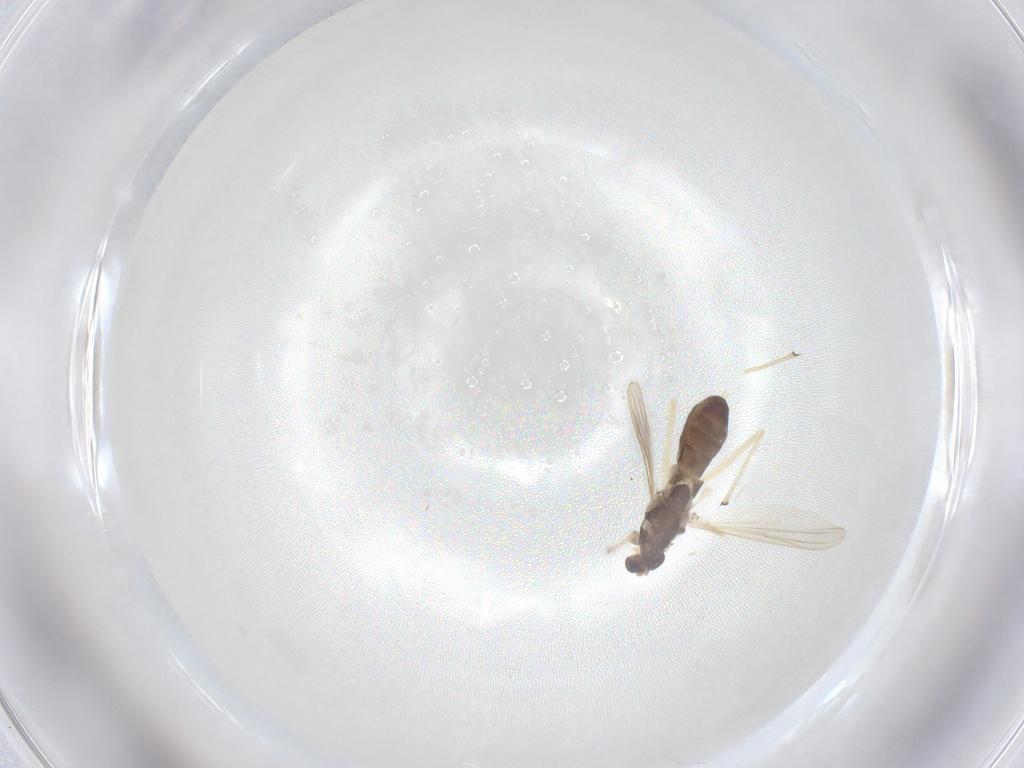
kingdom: Animalia
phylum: Arthropoda
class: Insecta
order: Diptera
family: Chironomidae
